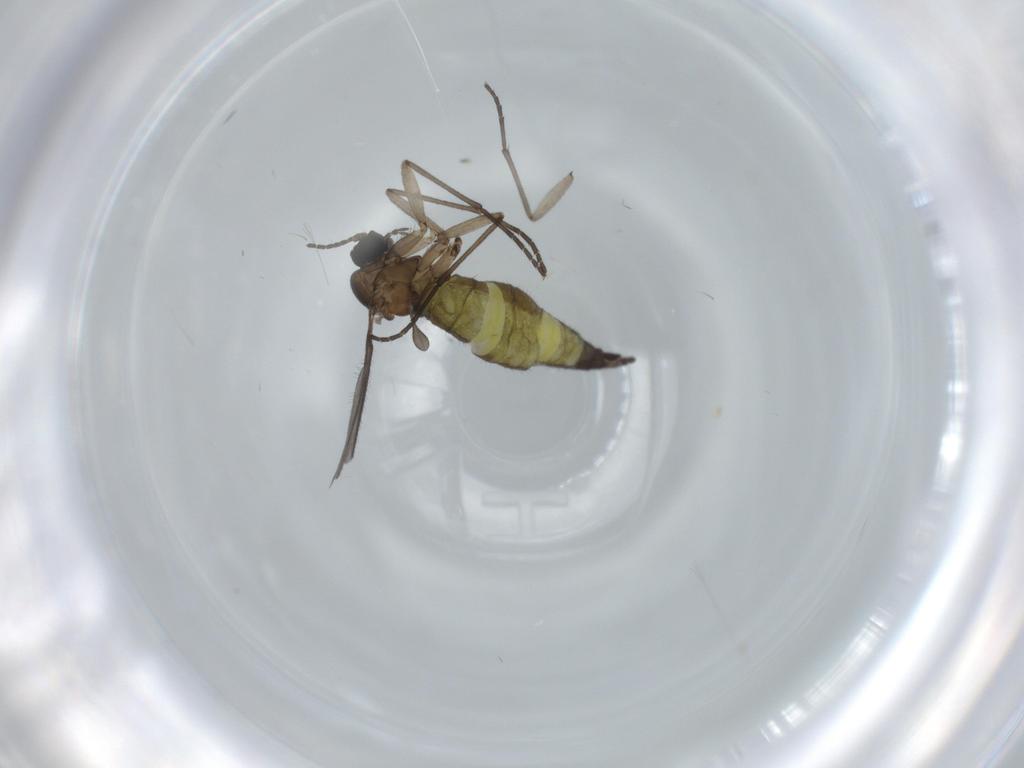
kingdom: Animalia
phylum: Arthropoda
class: Insecta
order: Diptera
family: Sciaridae
